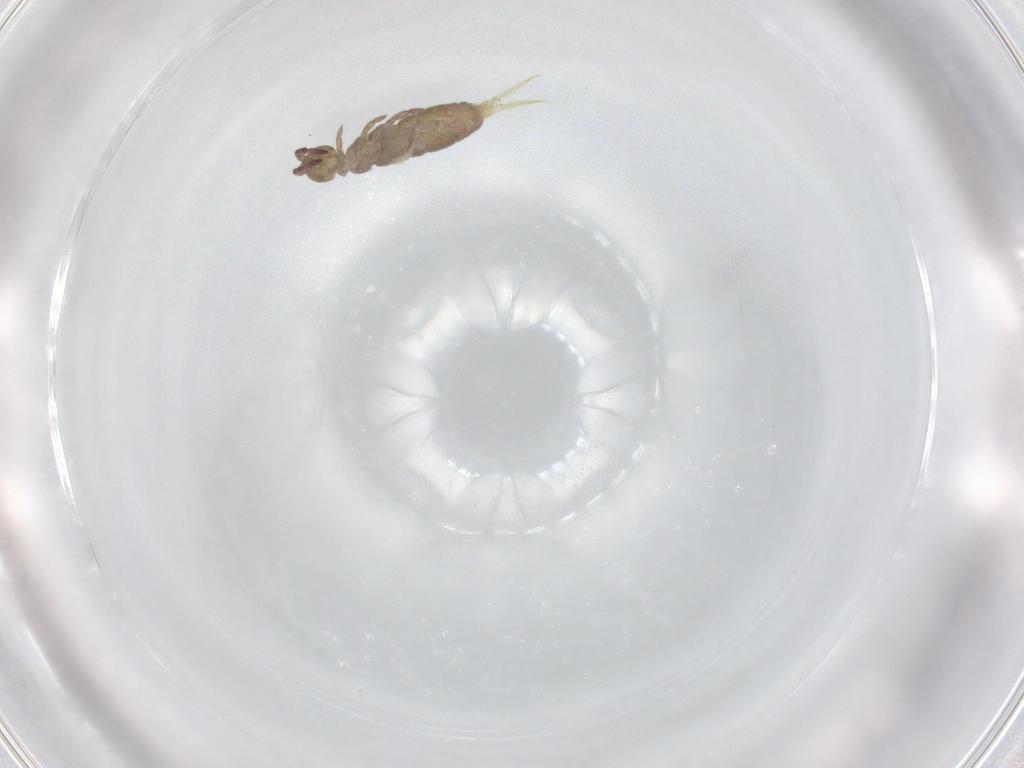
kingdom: Animalia
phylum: Arthropoda
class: Collembola
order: Entomobryomorpha
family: Isotomidae
